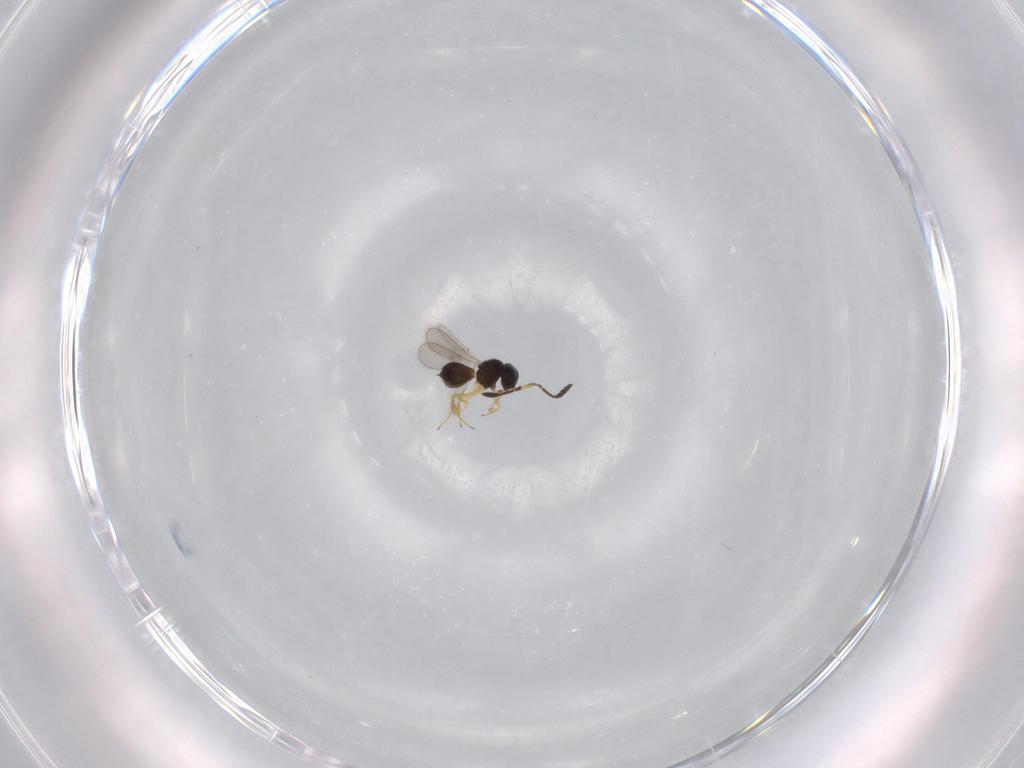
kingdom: Animalia
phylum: Arthropoda
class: Insecta
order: Hymenoptera
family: Scelionidae
